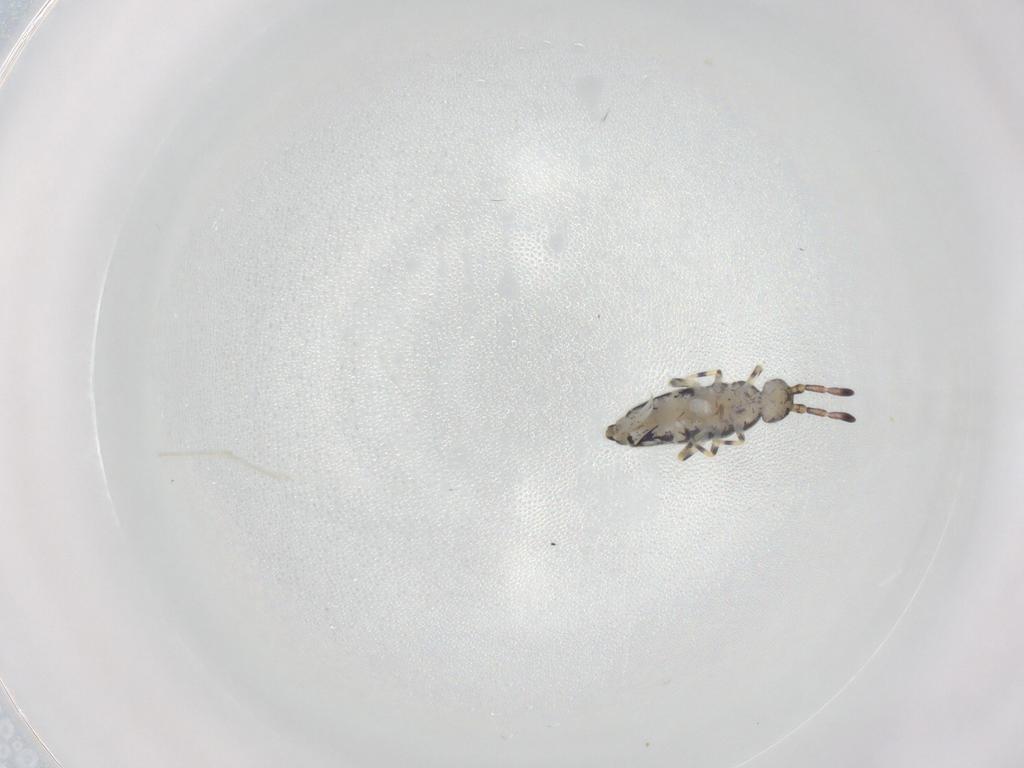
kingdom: Animalia
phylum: Arthropoda
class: Collembola
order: Entomobryomorpha
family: Entomobryidae
